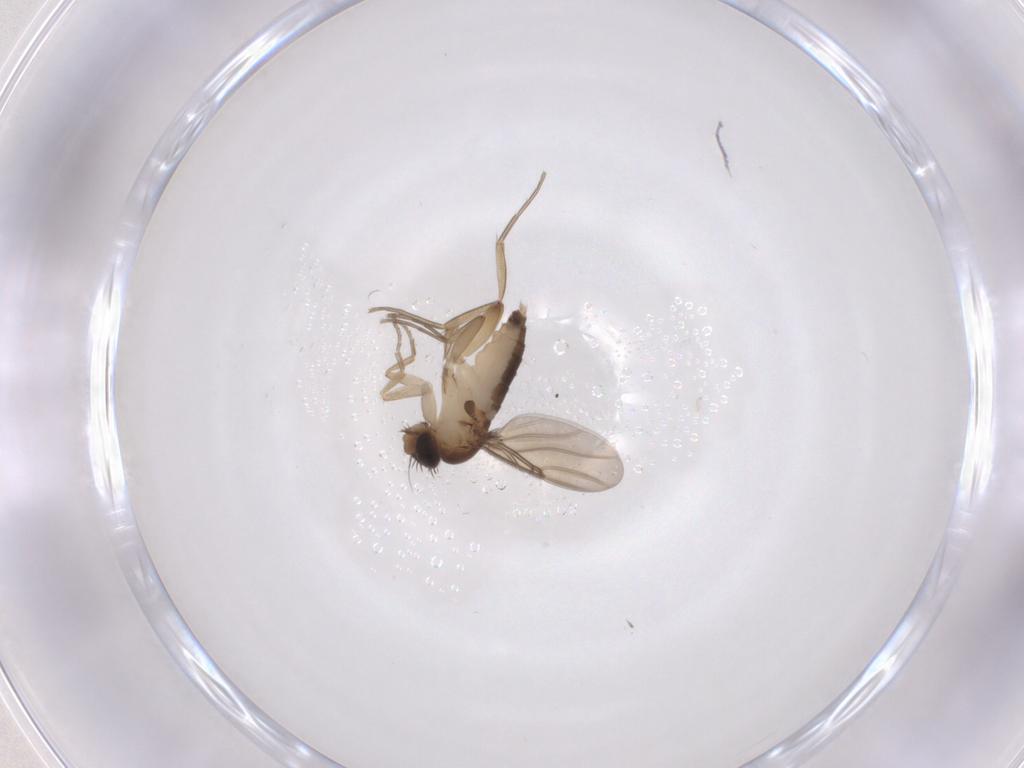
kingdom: Animalia
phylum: Arthropoda
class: Insecta
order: Diptera
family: Phoridae
